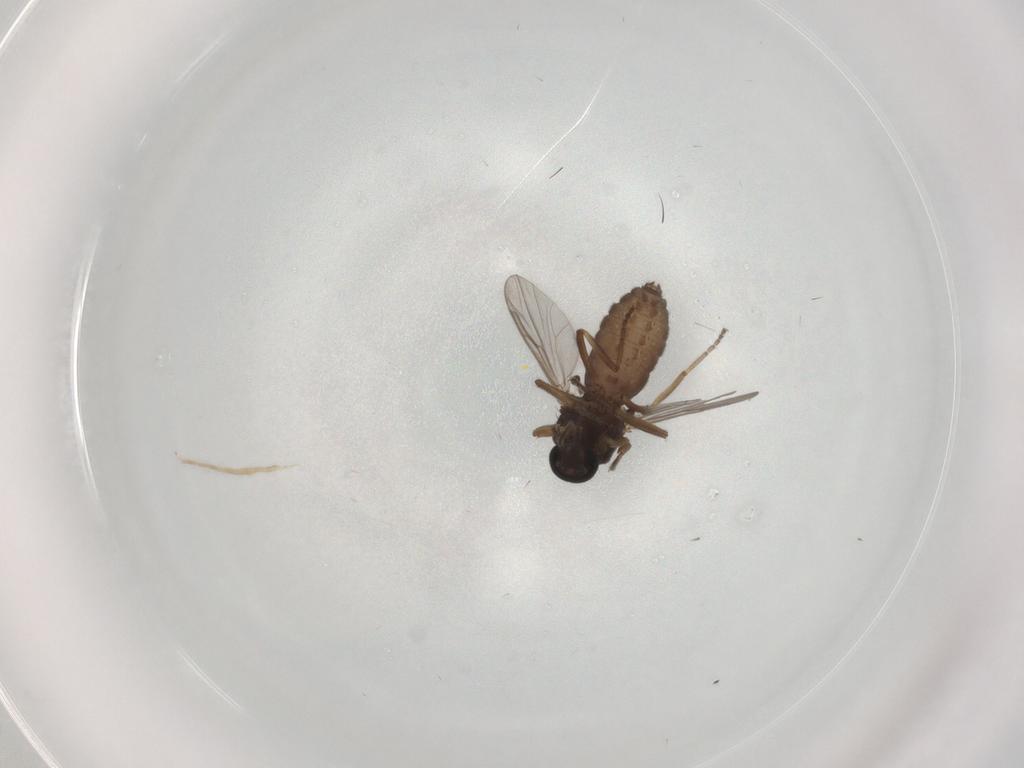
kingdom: Animalia
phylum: Arthropoda
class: Insecta
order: Diptera
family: Ceratopogonidae
